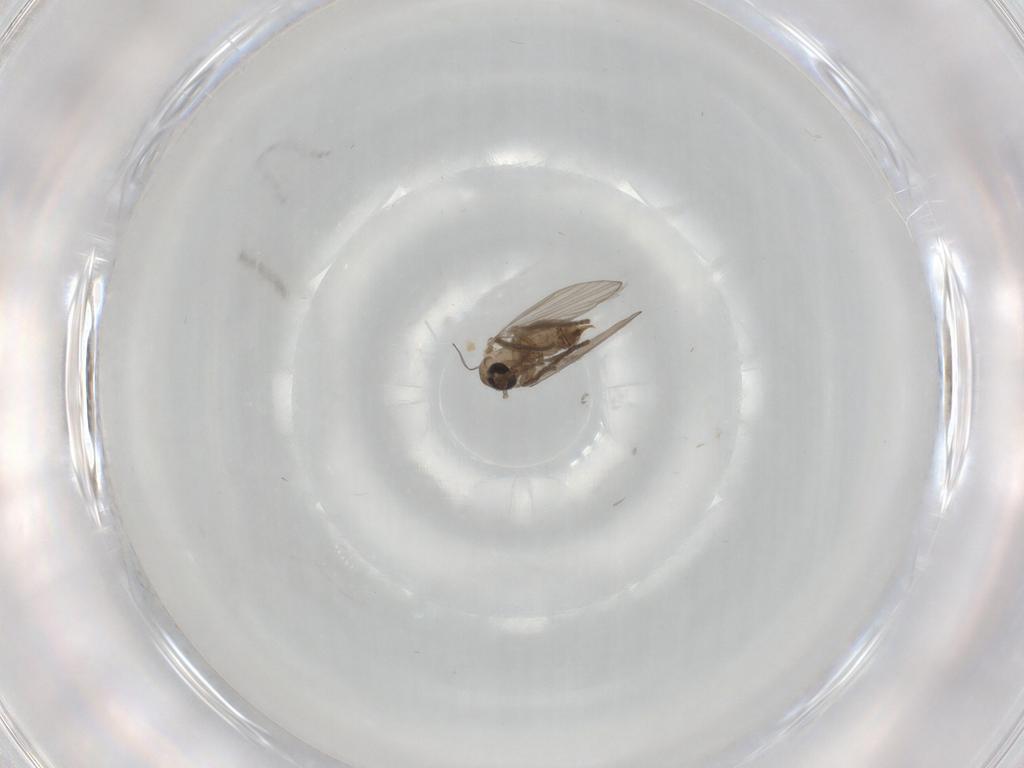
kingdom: Animalia
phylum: Arthropoda
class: Insecta
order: Diptera
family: Psychodidae
